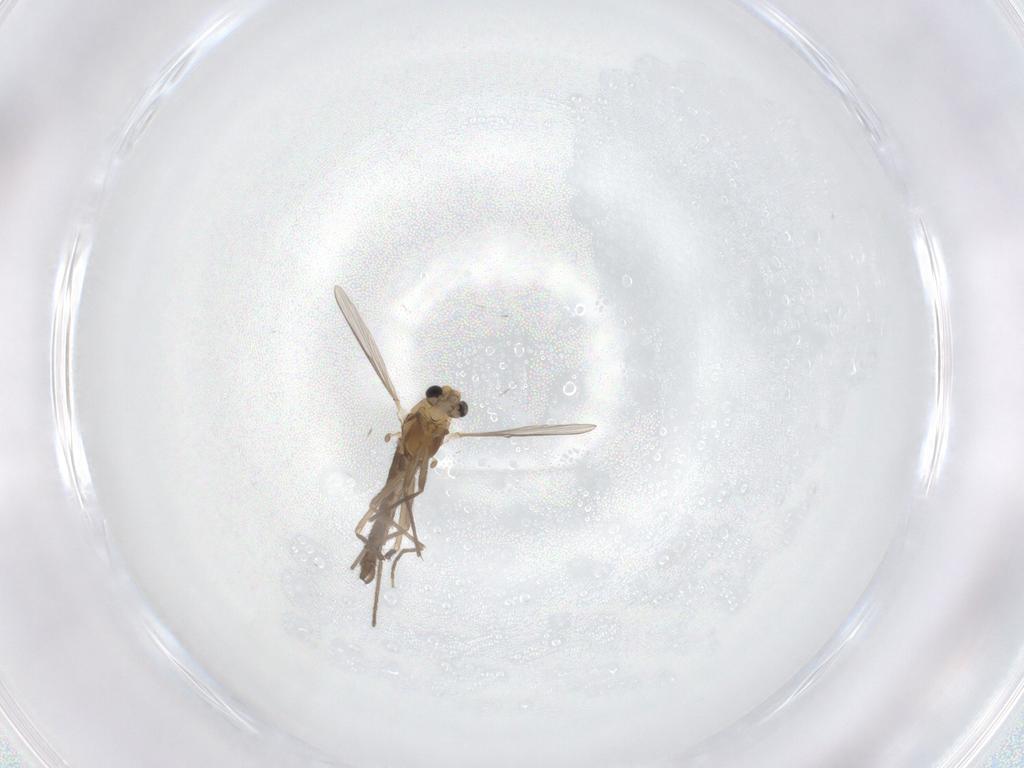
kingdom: Animalia
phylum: Arthropoda
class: Insecta
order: Diptera
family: Chironomidae
